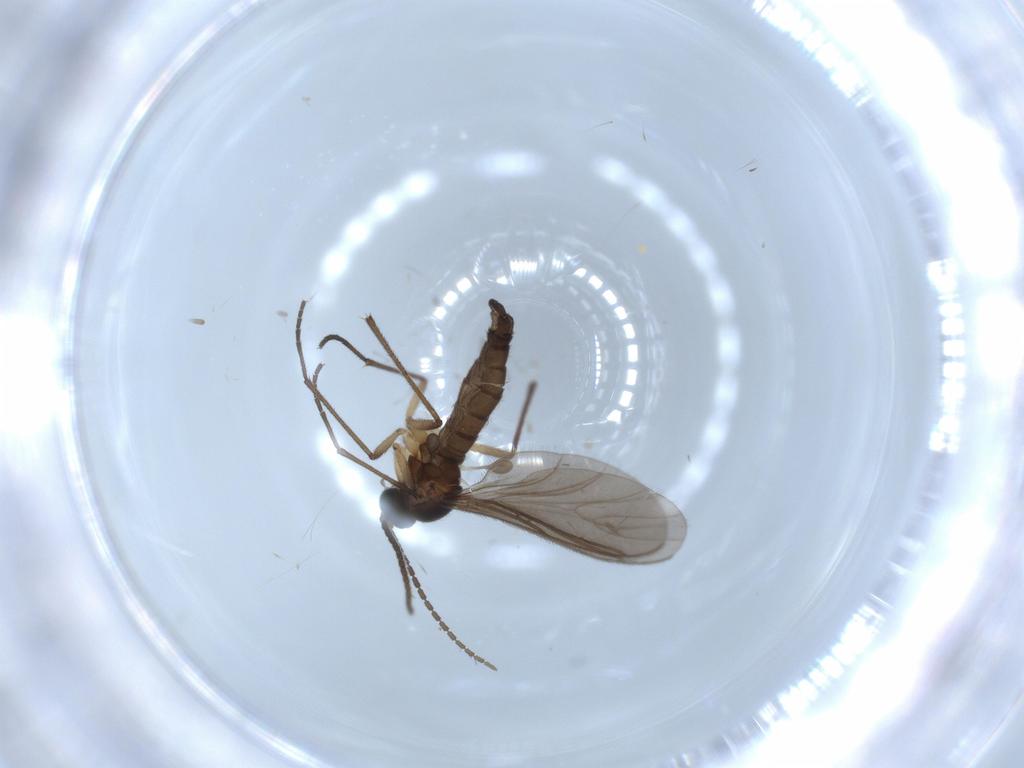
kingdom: Animalia
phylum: Arthropoda
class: Insecta
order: Diptera
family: Sciaridae
